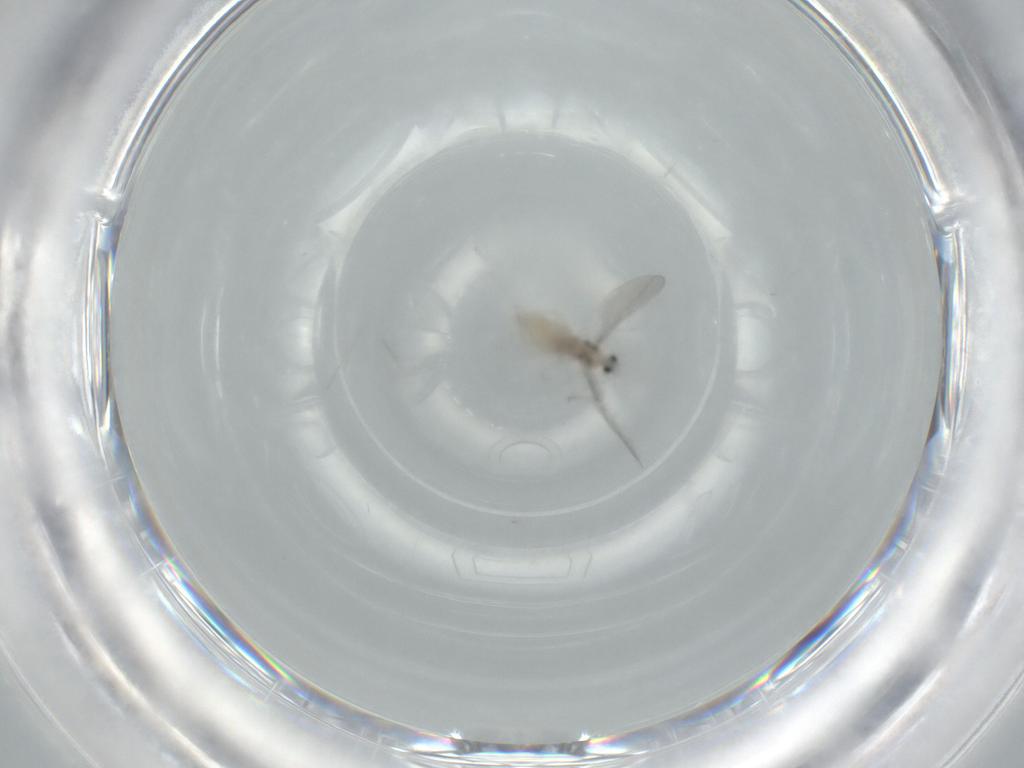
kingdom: Animalia
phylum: Arthropoda
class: Insecta
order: Diptera
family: Cecidomyiidae
